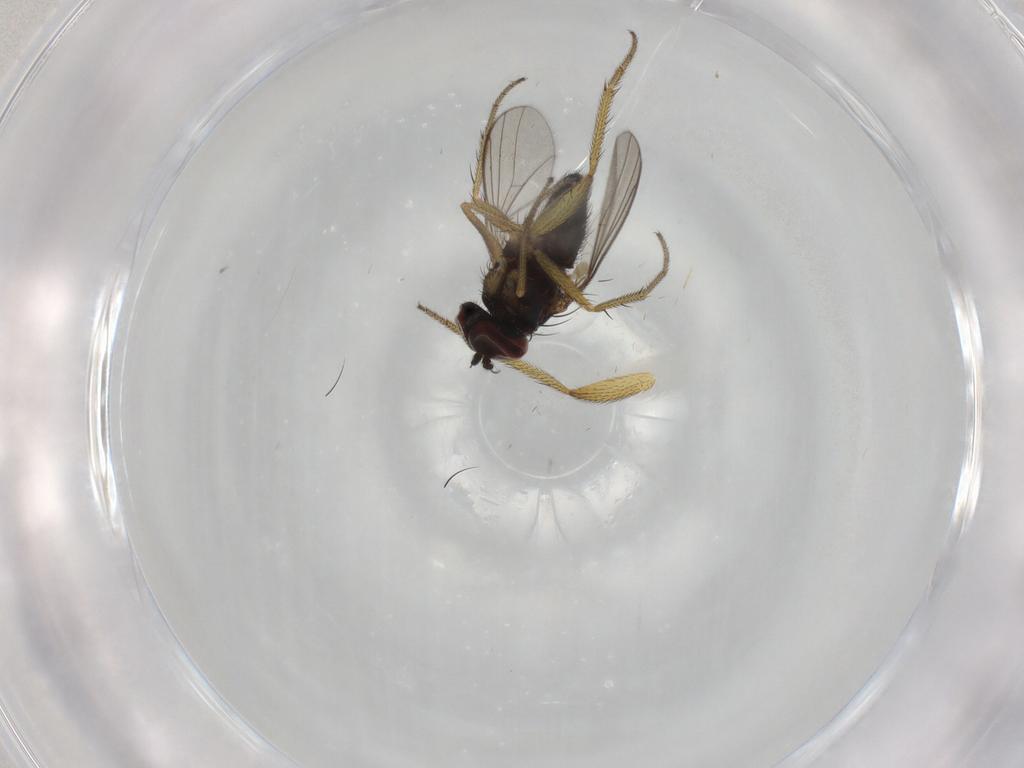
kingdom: Animalia
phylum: Arthropoda
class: Insecta
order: Diptera
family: Dolichopodidae
